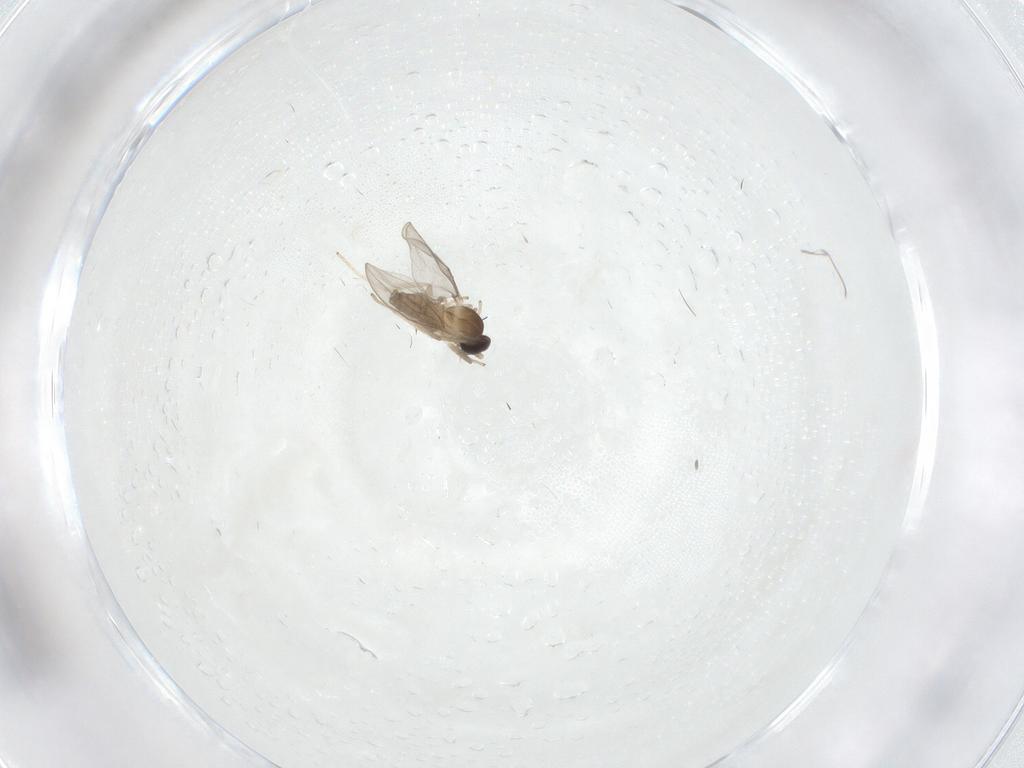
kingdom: Animalia
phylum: Arthropoda
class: Insecta
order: Diptera
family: Cecidomyiidae
